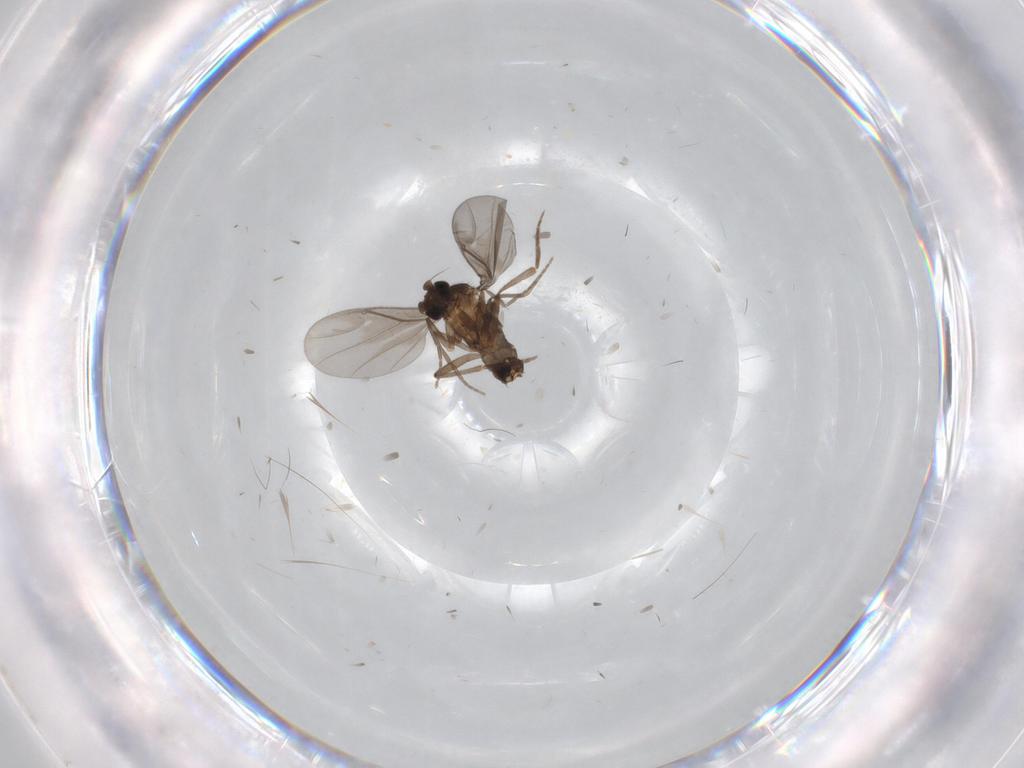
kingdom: Animalia
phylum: Arthropoda
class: Insecta
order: Diptera
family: Phoridae
